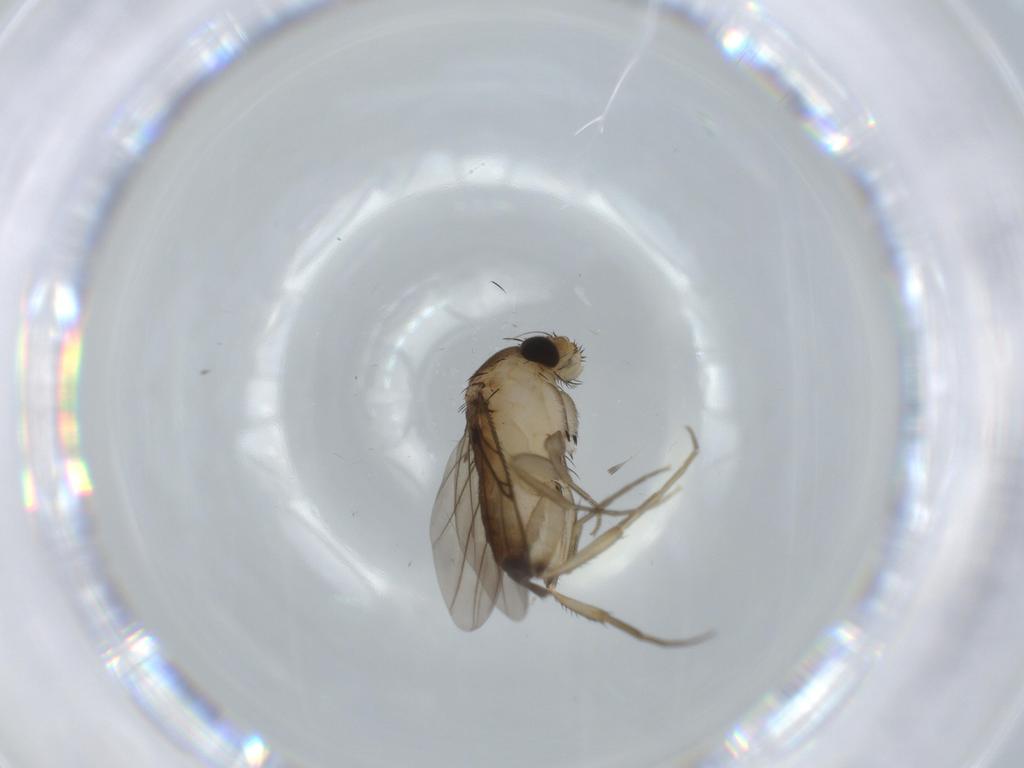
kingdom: Animalia
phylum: Arthropoda
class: Insecta
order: Diptera
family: Phoridae
